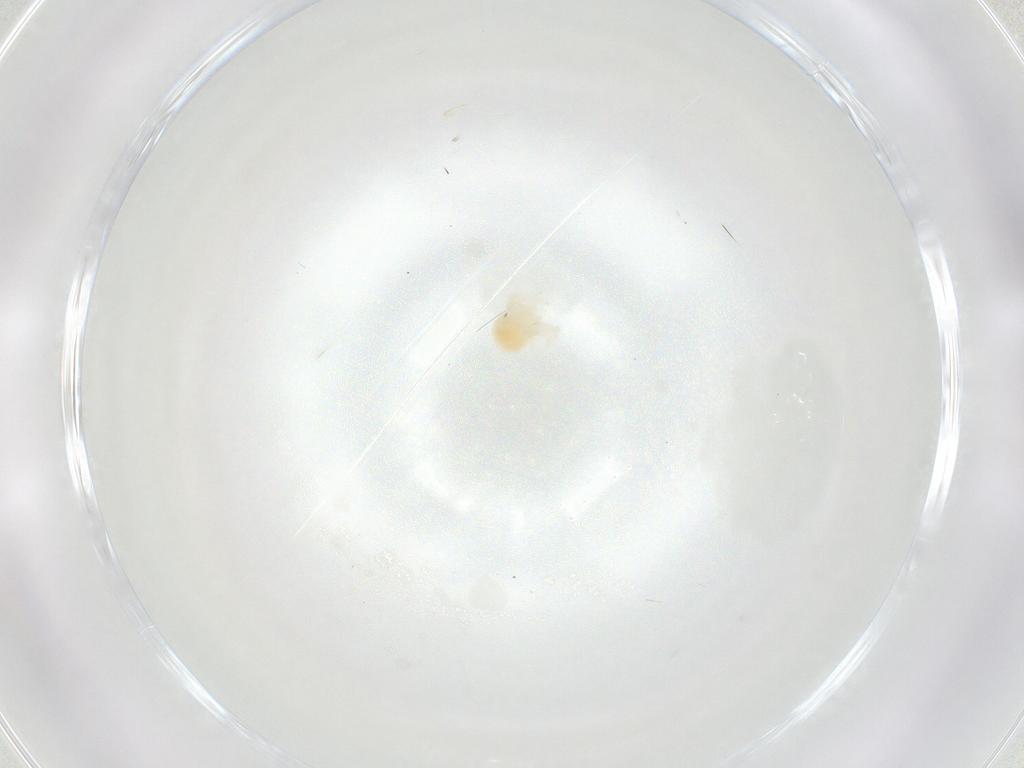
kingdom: Animalia
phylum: Arthropoda
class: Arachnida
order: Trombidiformes
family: Anystidae
